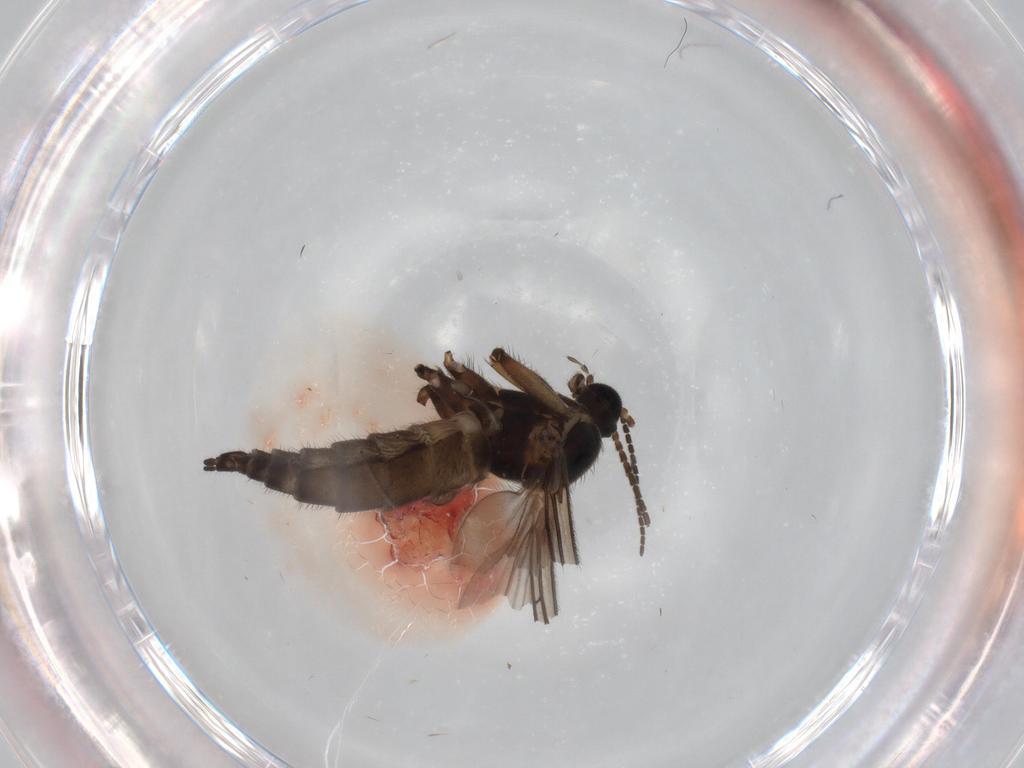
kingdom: Animalia
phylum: Arthropoda
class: Insecta
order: Diptera
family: Sciaridae
